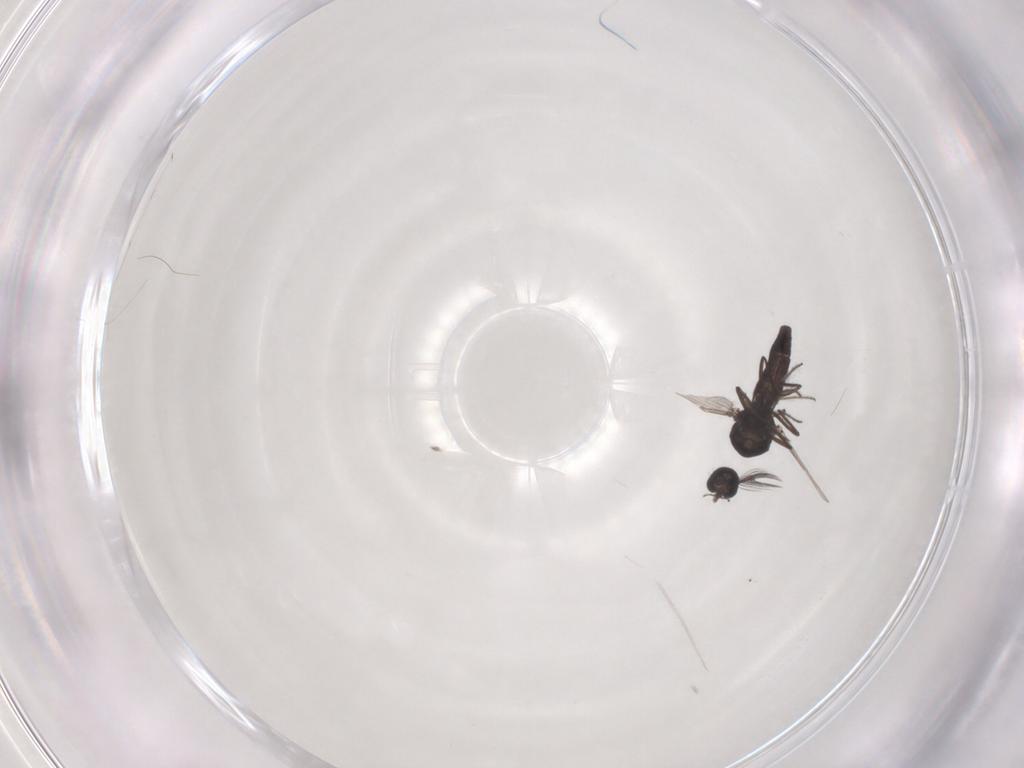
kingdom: Animalia
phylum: Arthropoda
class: Insecta
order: Diptera
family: Ceratopogonidae
